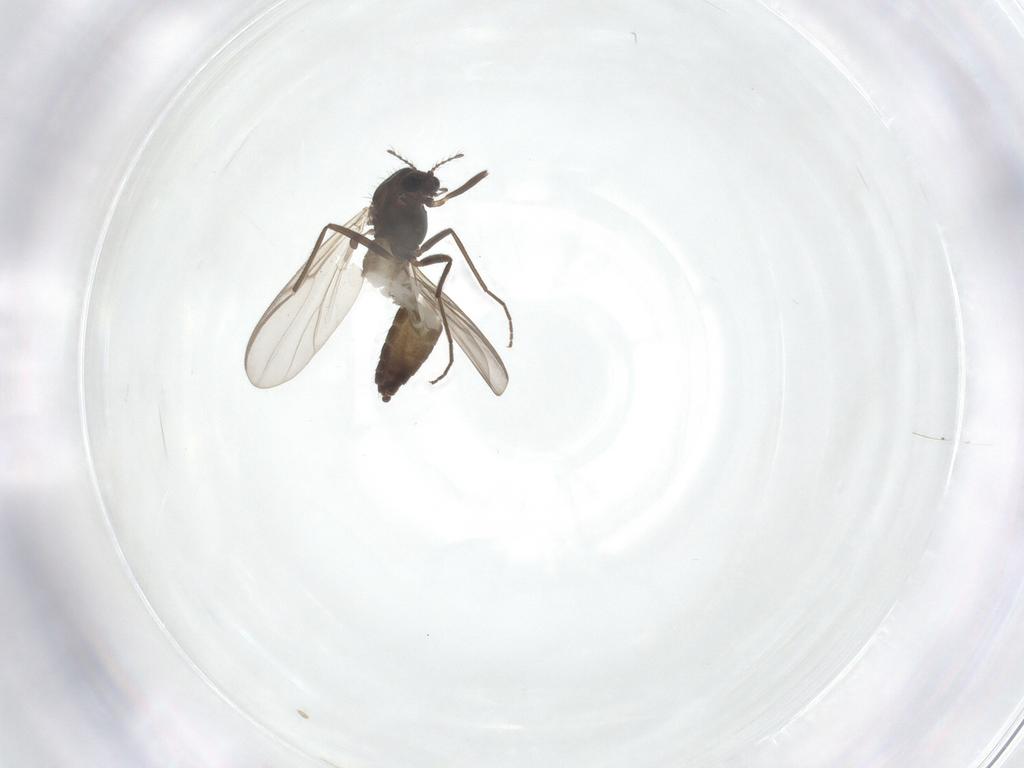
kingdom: Animalia
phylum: Arthropoda
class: Insecta
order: Diptera
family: Chironomidae
